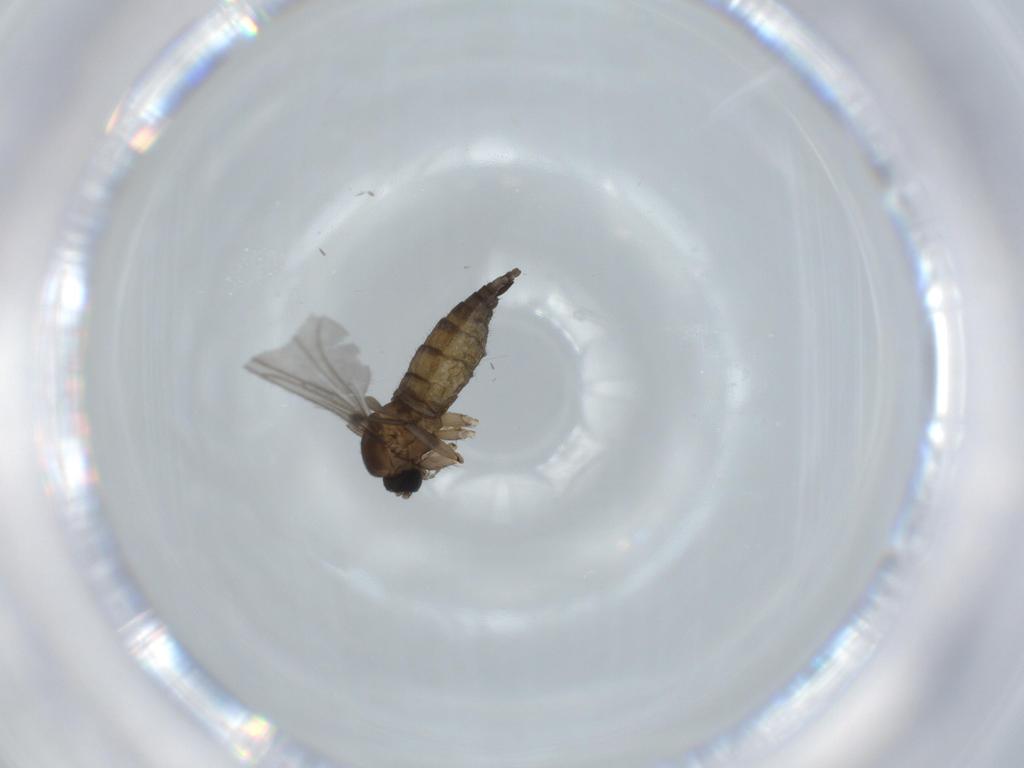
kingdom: Animalia
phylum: Arthropoda
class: Insecta
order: Diptera
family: Sciaridae
